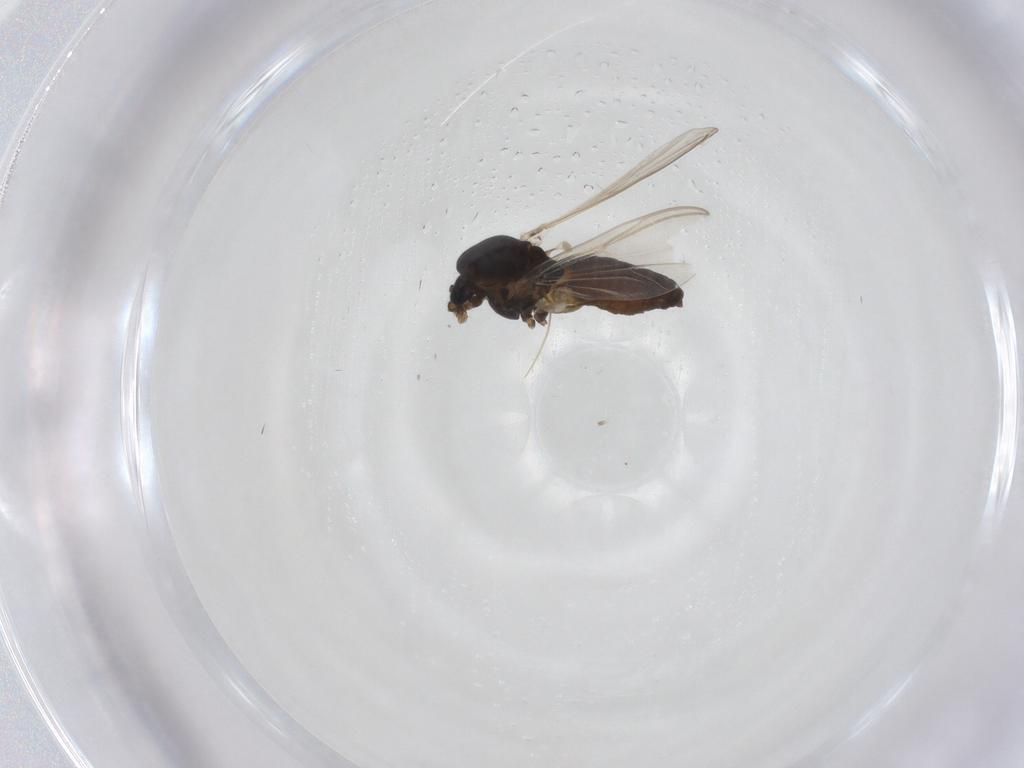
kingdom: Animalia
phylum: Arthropoda
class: Insecta
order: Diptera
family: Chironomidae
